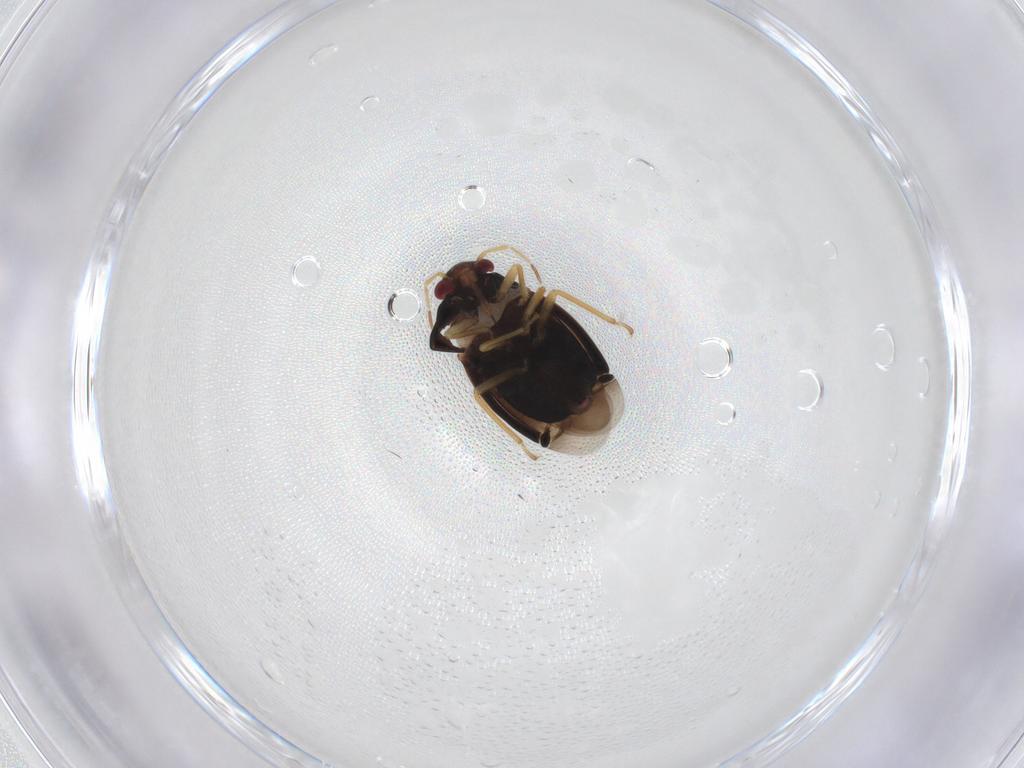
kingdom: Animalia
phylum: Arthropoda
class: Insecta
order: Hemiptera
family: Miridae
